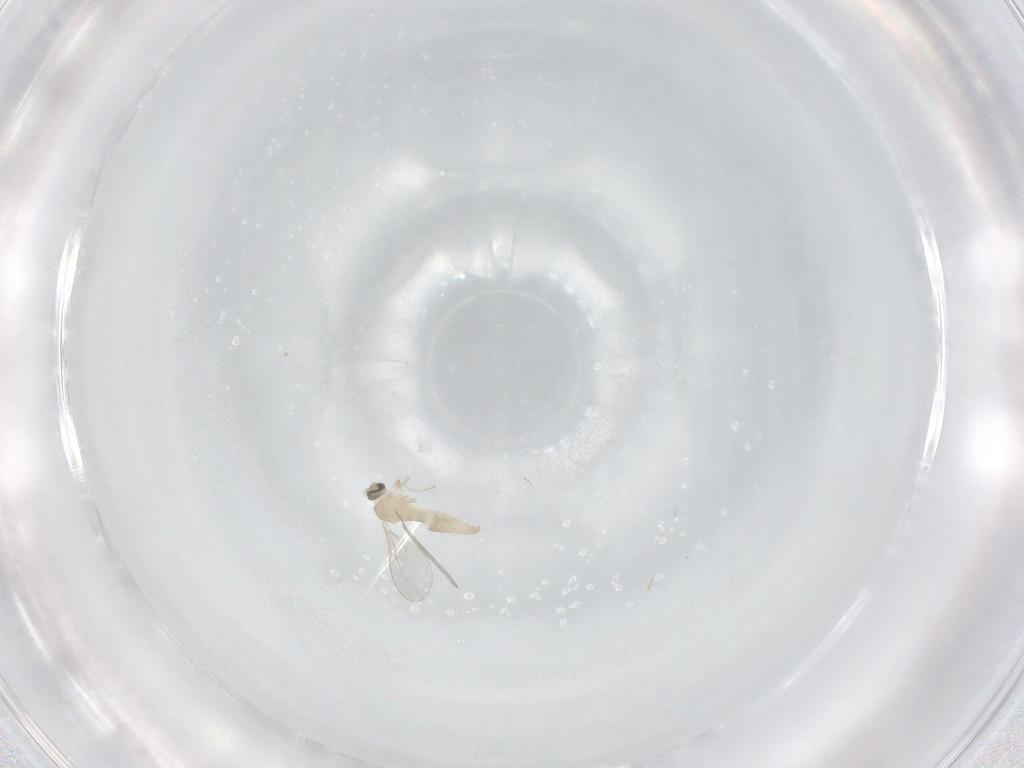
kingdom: Animalia
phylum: Arthropoda
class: Insecta
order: Diptera
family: Cecidomyiidae
